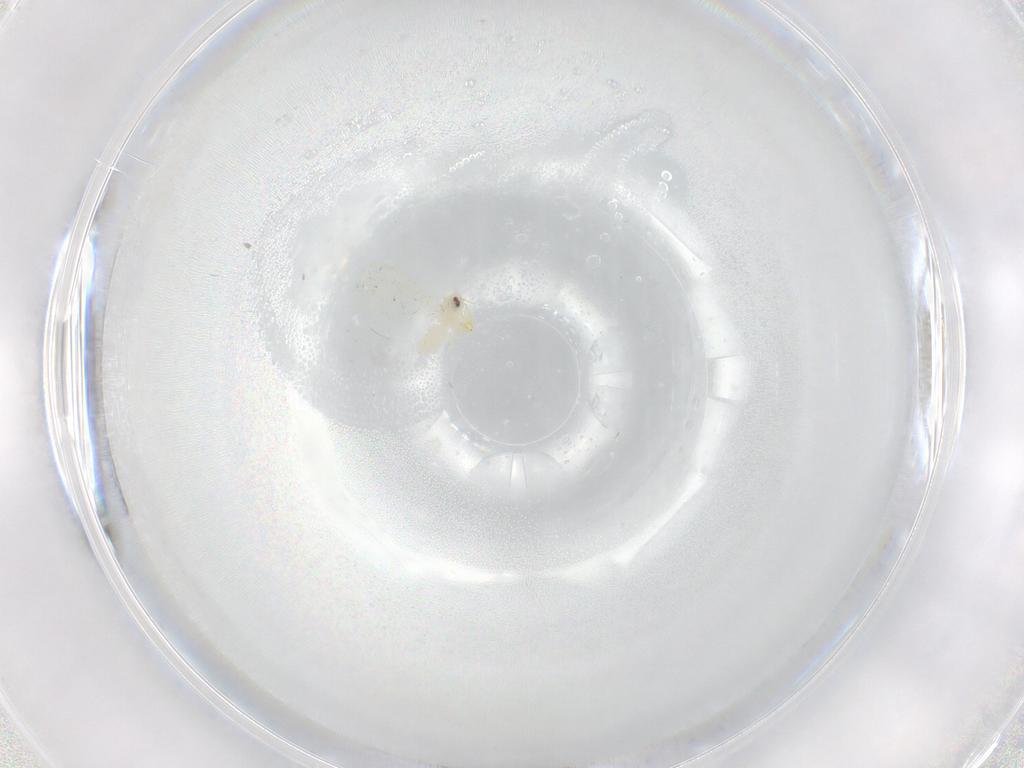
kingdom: Animalia
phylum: Arthropoda
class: Insecta
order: Hemiptera
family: Aleyrodidae
